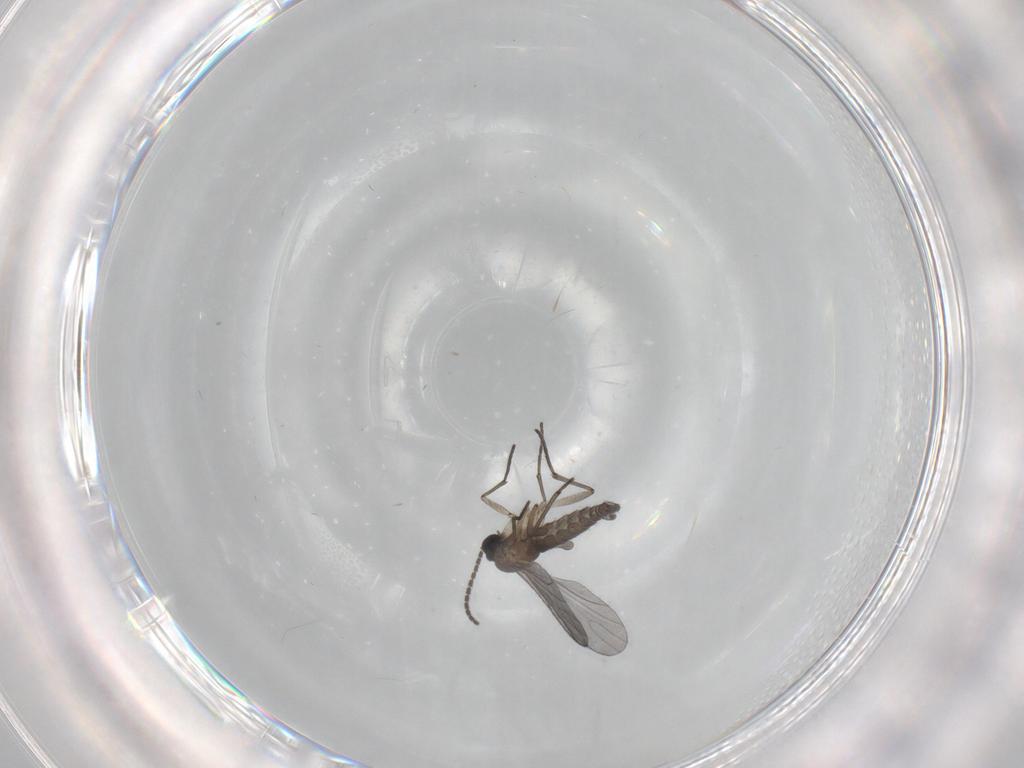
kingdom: Animalia
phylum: Arthropoda
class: Insecta
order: Diptera
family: Sciaridae
